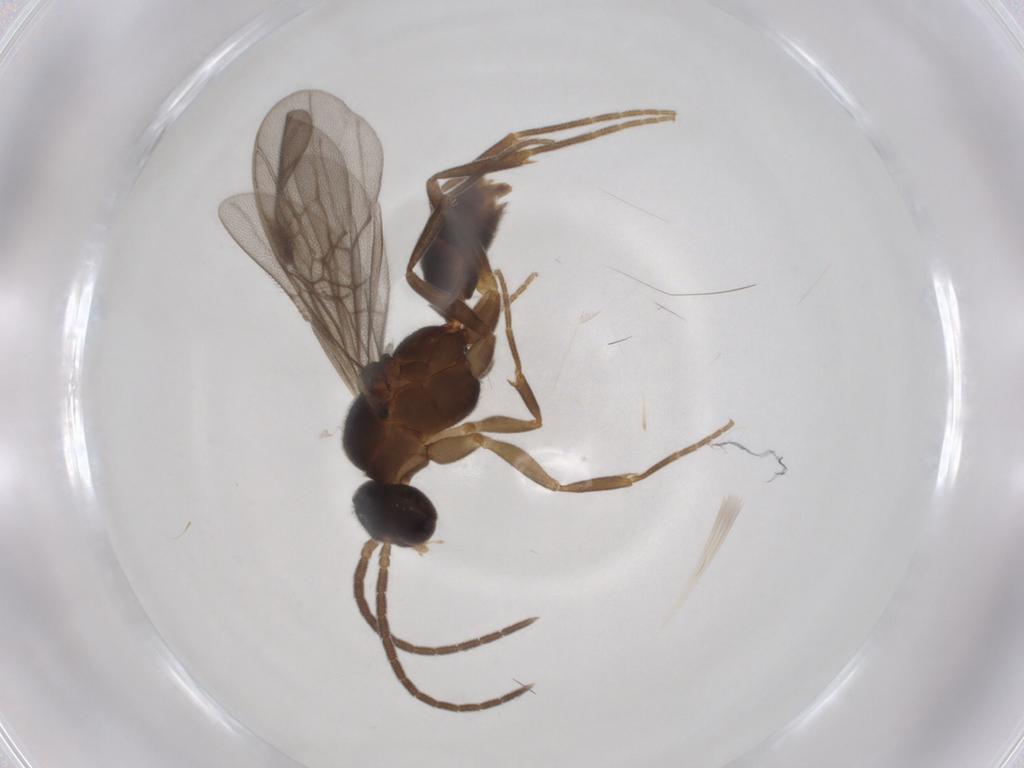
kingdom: Animalia
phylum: Arthropoda
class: Insecta
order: Hymenoptera
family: Formicidae
